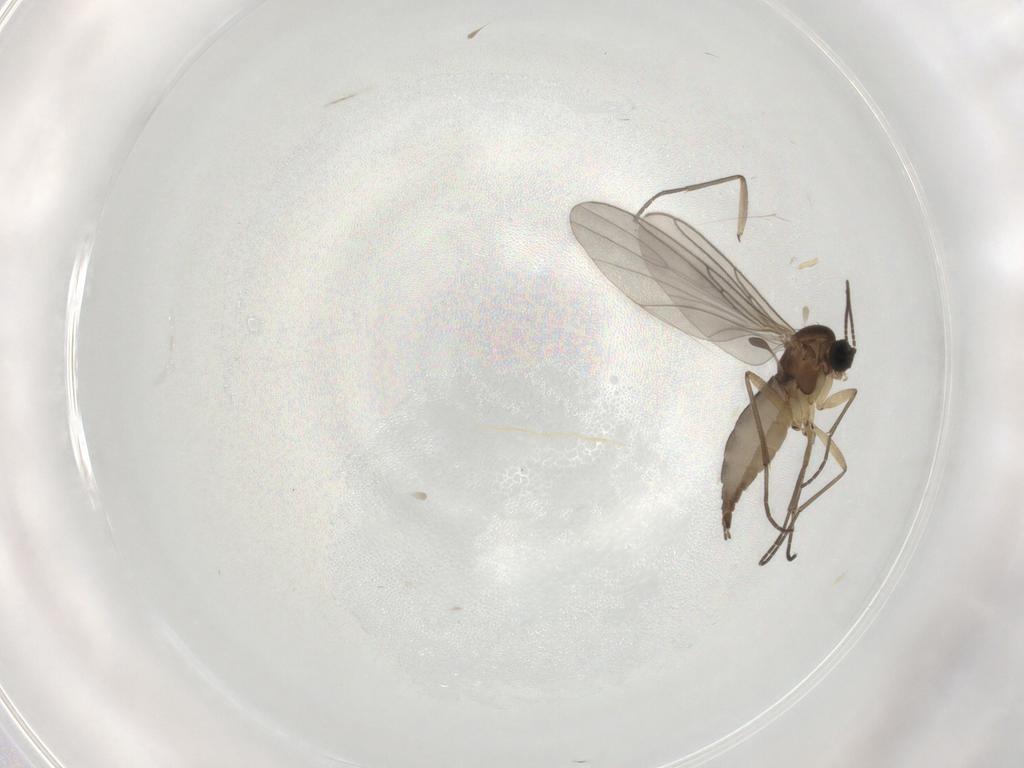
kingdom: Animalia
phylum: Arthropoda
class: Insecta
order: Diptera
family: Sciaridae
